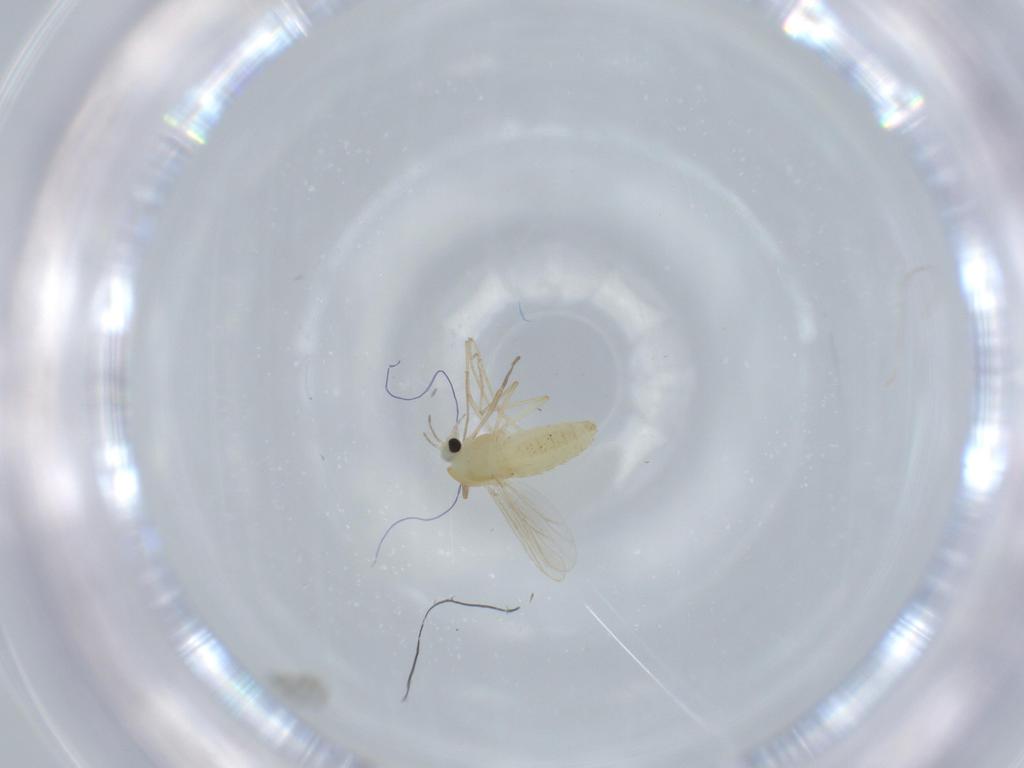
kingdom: Animalia
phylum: Arthropoda
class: Insecta
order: Diptera
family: Chironomidae
